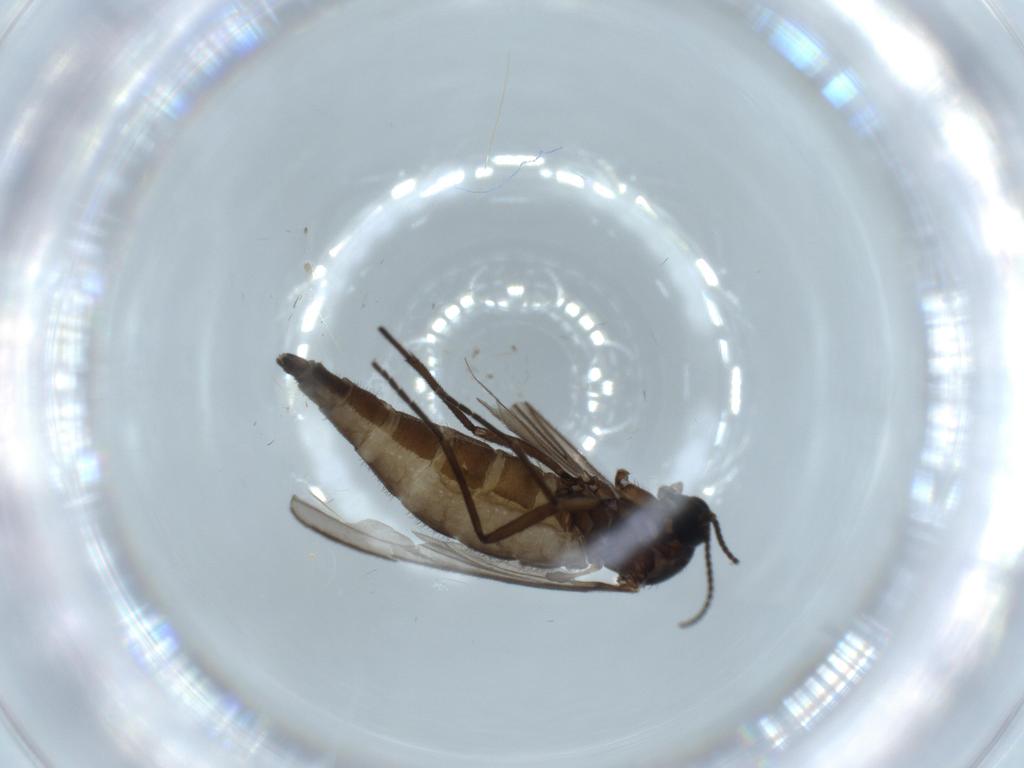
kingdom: Animalia
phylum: Arthropoda
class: Insecta
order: Diptera
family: Sciaridae
